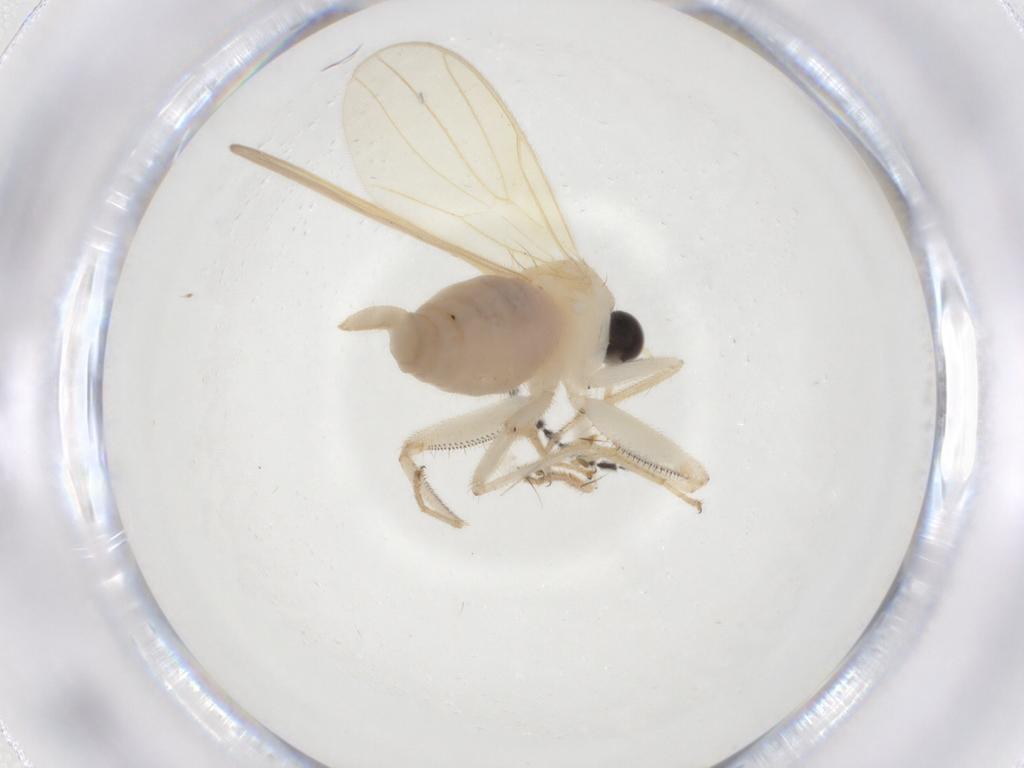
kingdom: Animalia
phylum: Arthropoda
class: Insecta
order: Diptera
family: Hybotidae
